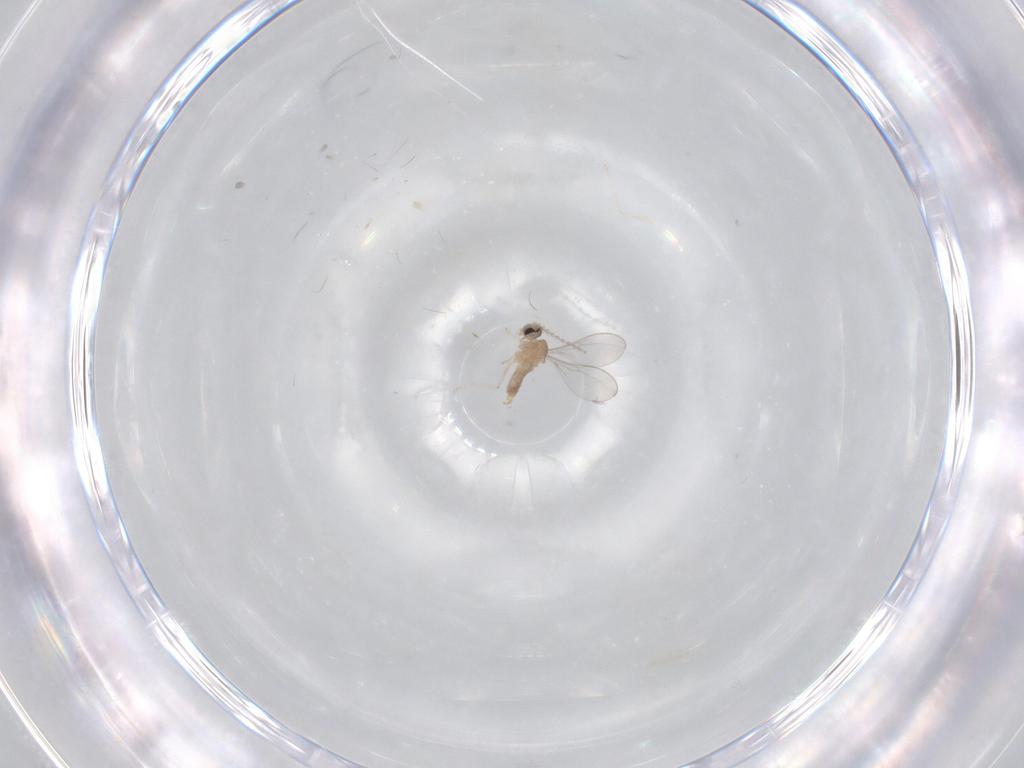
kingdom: Animalia
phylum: Arthropoda
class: Insecta
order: Diptera
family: Cecidomyiidae
